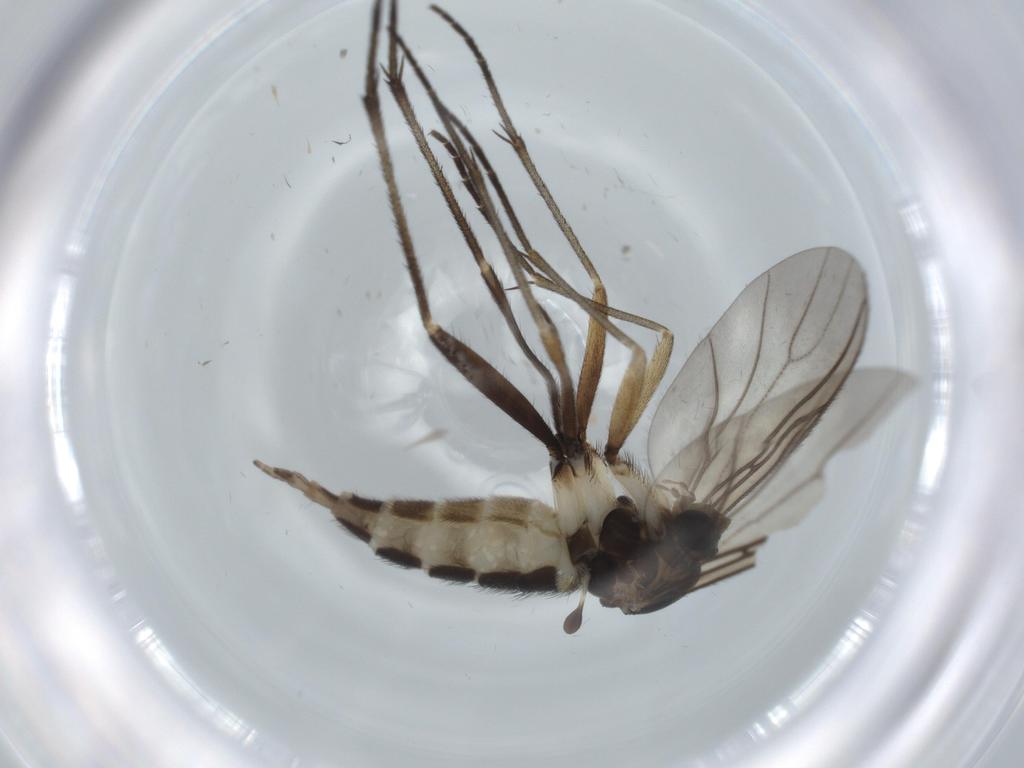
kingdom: Animalia
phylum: Arthropoda
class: Insecta
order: Diptera
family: Sciaridae
